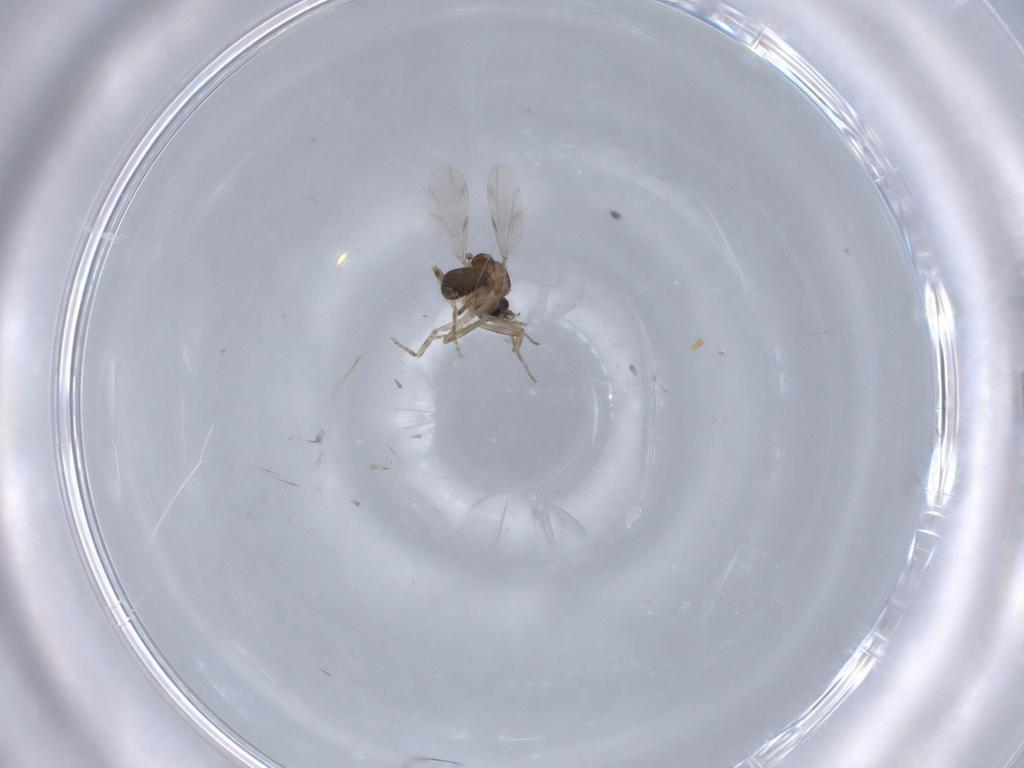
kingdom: Animalia
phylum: Arthropoda
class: Insecta
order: Diptera
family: Ceratopogonidae
